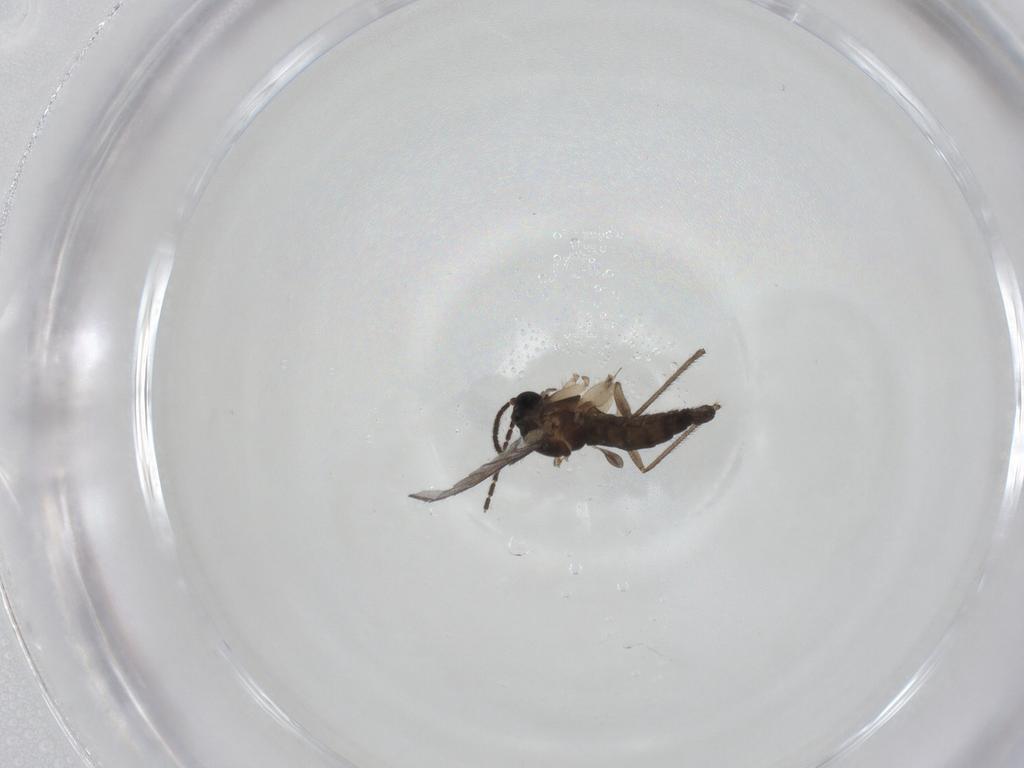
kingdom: Animalia
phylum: Arthropoda
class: Insecta
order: Diptera
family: Sciaridae
